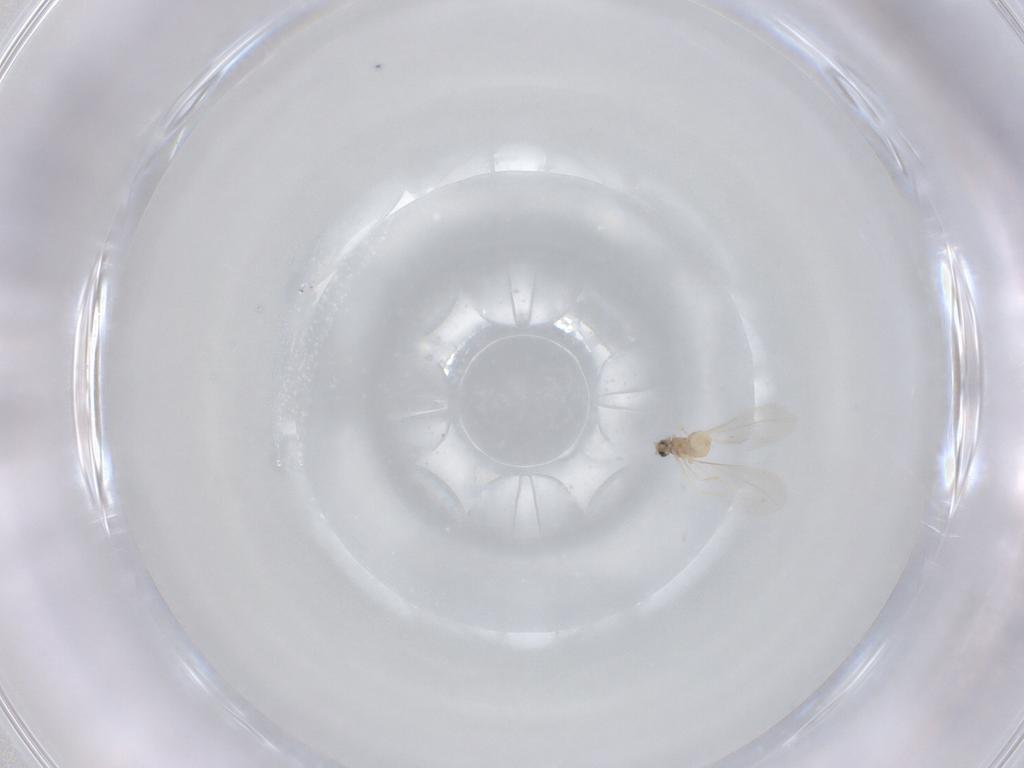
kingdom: Animalia
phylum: Arthropoda
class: Insecta
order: Diptera
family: Cecidomyiidae
